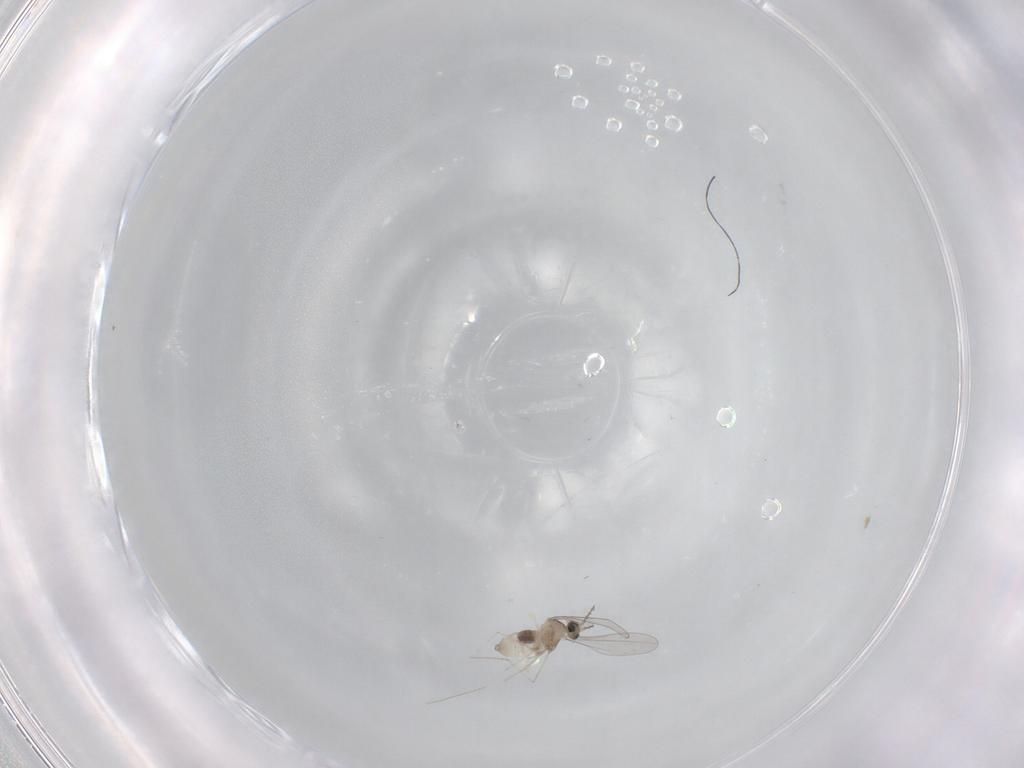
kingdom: Animalia
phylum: Arthropoda
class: Insecta
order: Diptera
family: Cecidomyiidae
